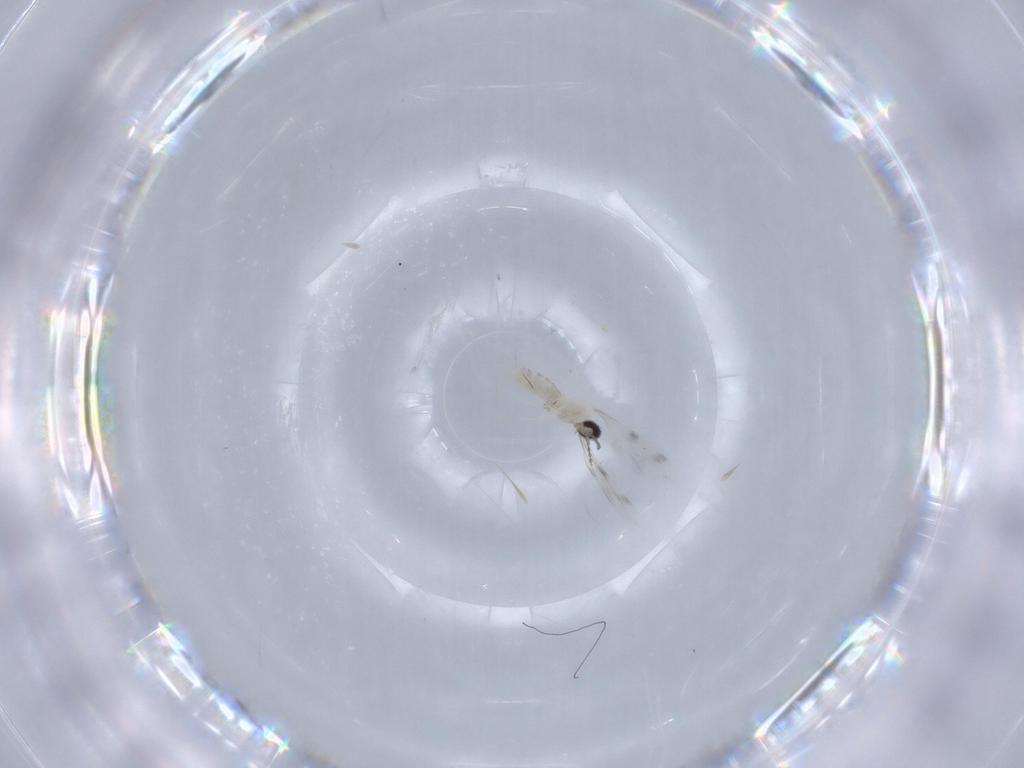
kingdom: Animalia
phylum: Arthropoda
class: Insecta
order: Diptera
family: Cecidomyiidae
